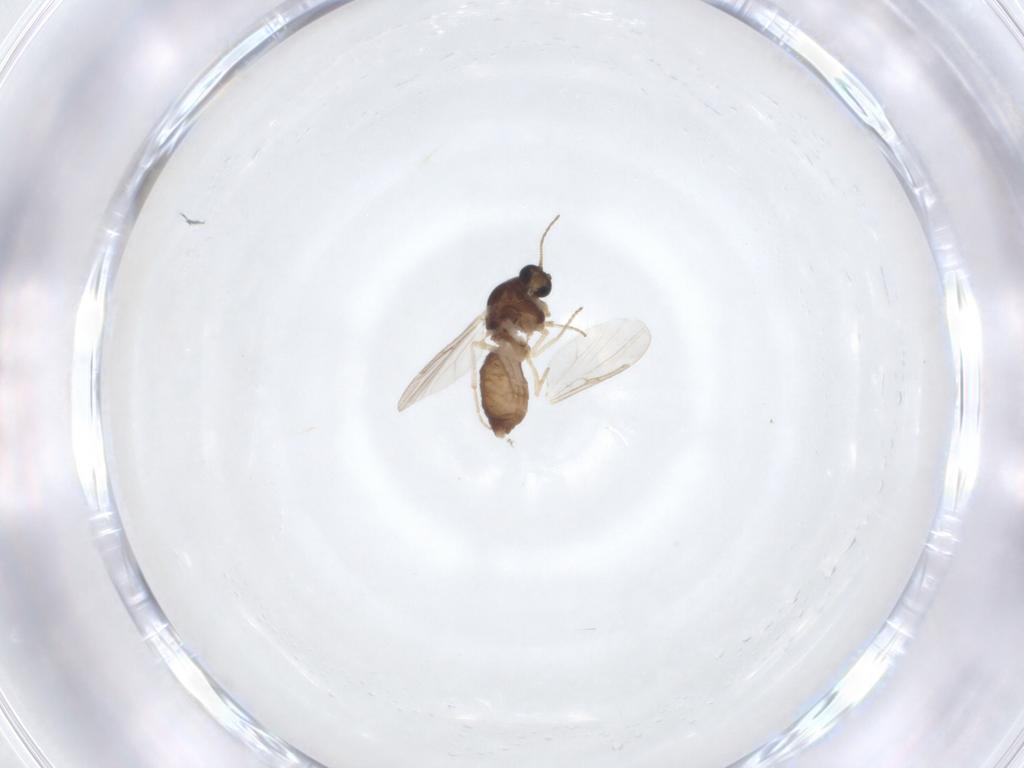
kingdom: Animalia
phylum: Arthropoda
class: Insecta
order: Diptera
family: Ceratopogonidae
